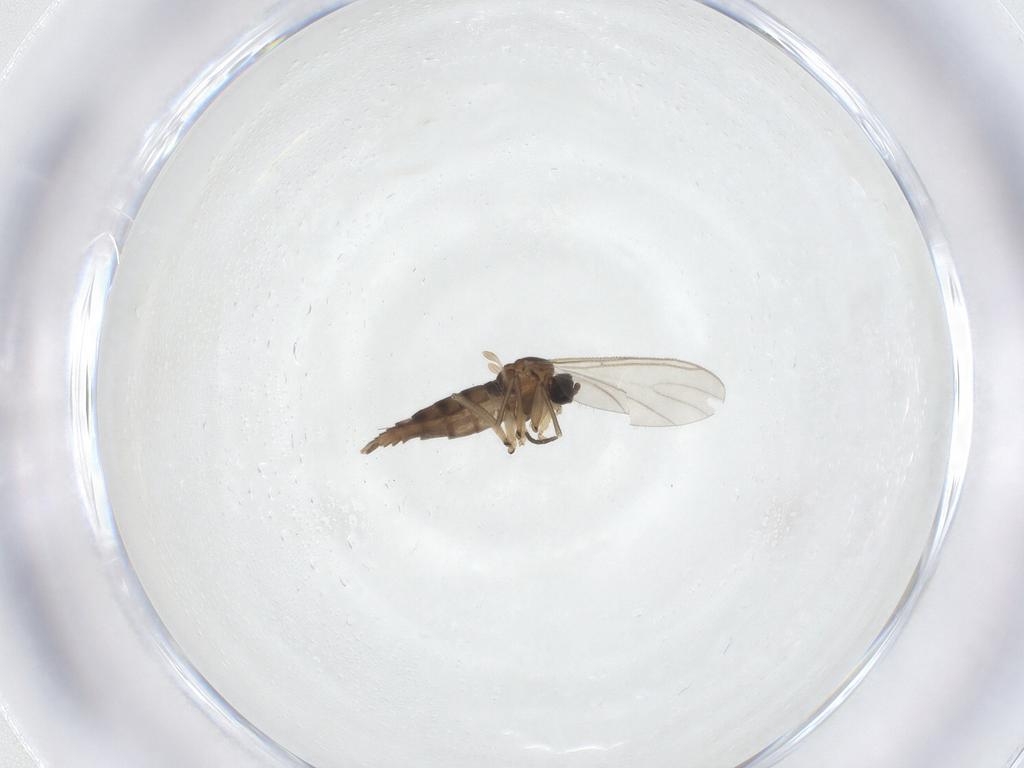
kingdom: Animalia
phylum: Arthropoda
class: Insecta
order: Diptera
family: Sciaridae
